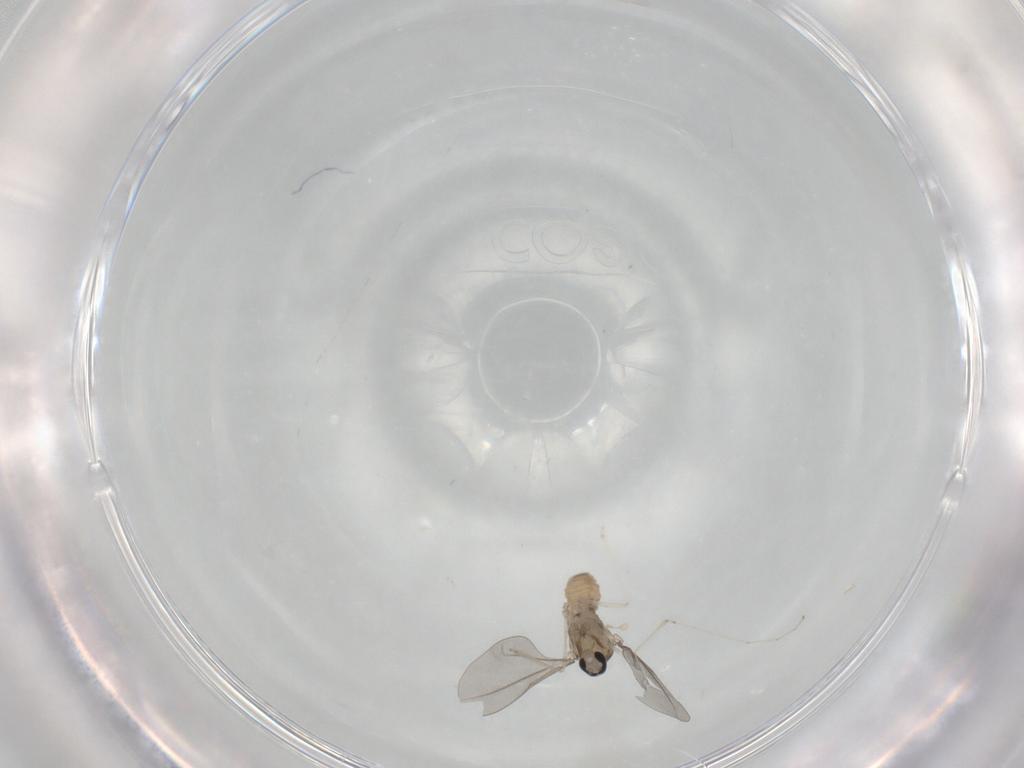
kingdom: Animalia
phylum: Arthropoda
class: Insecta
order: Diptera
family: Cecidomyiidae
